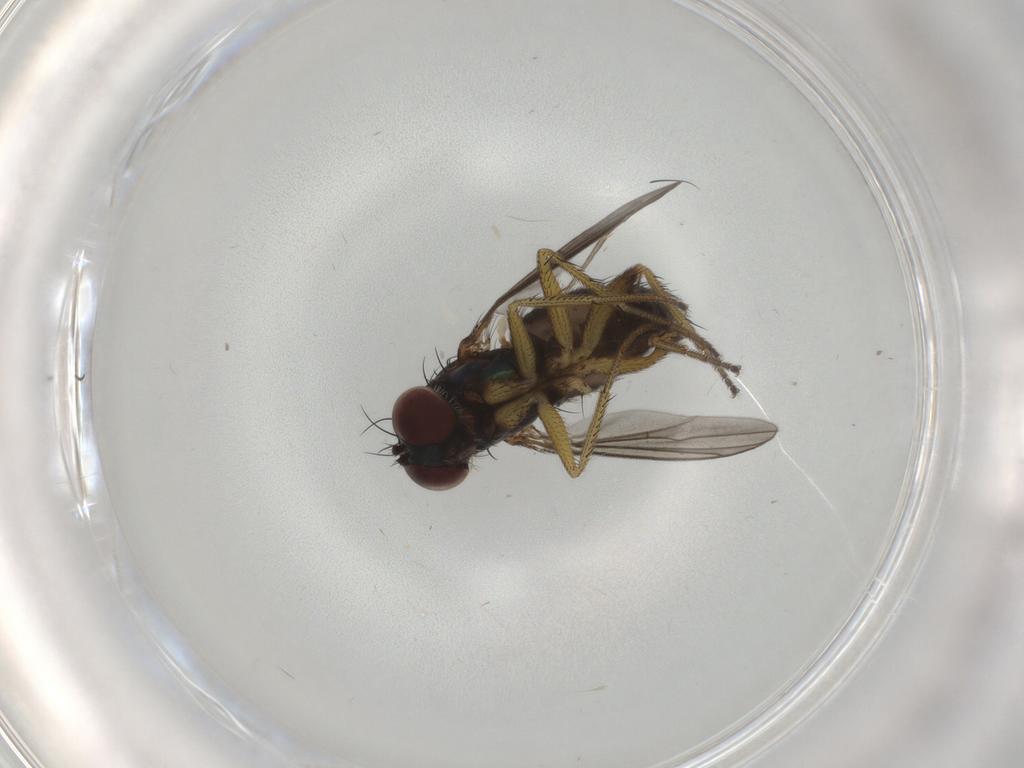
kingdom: Animalia
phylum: Arthropoda
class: Insecta
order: Diptera
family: Dolichopodidae
